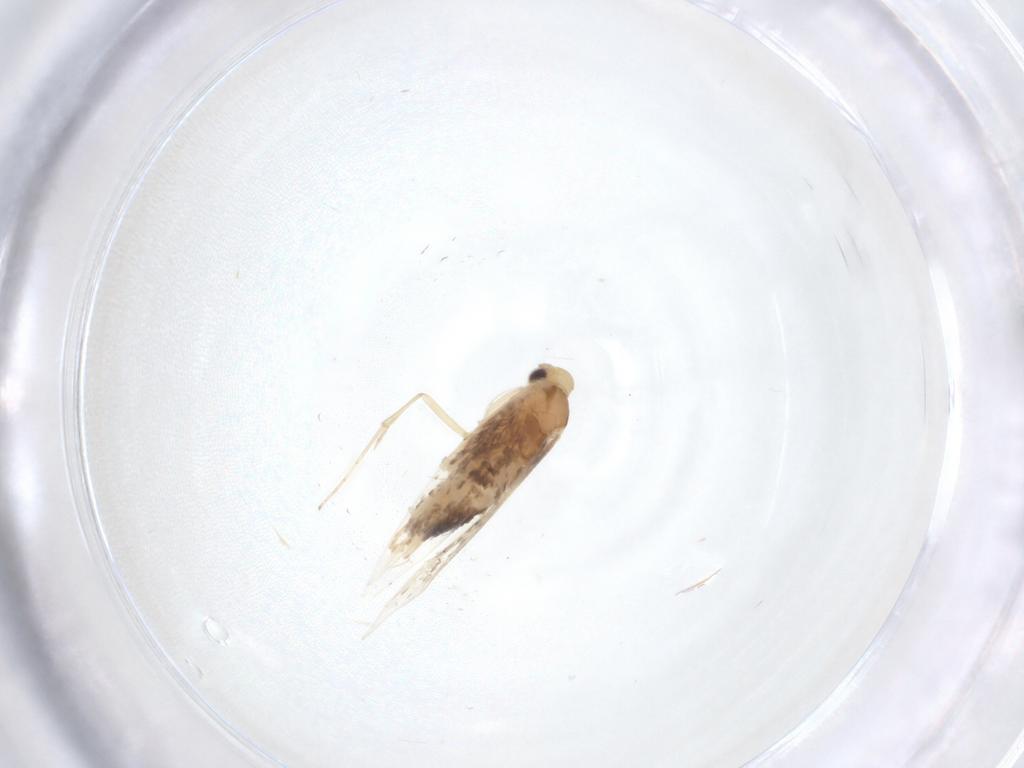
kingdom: Animalia
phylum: Arthropoda
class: Insecta
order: Lepidoptera
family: Gracillariidae
